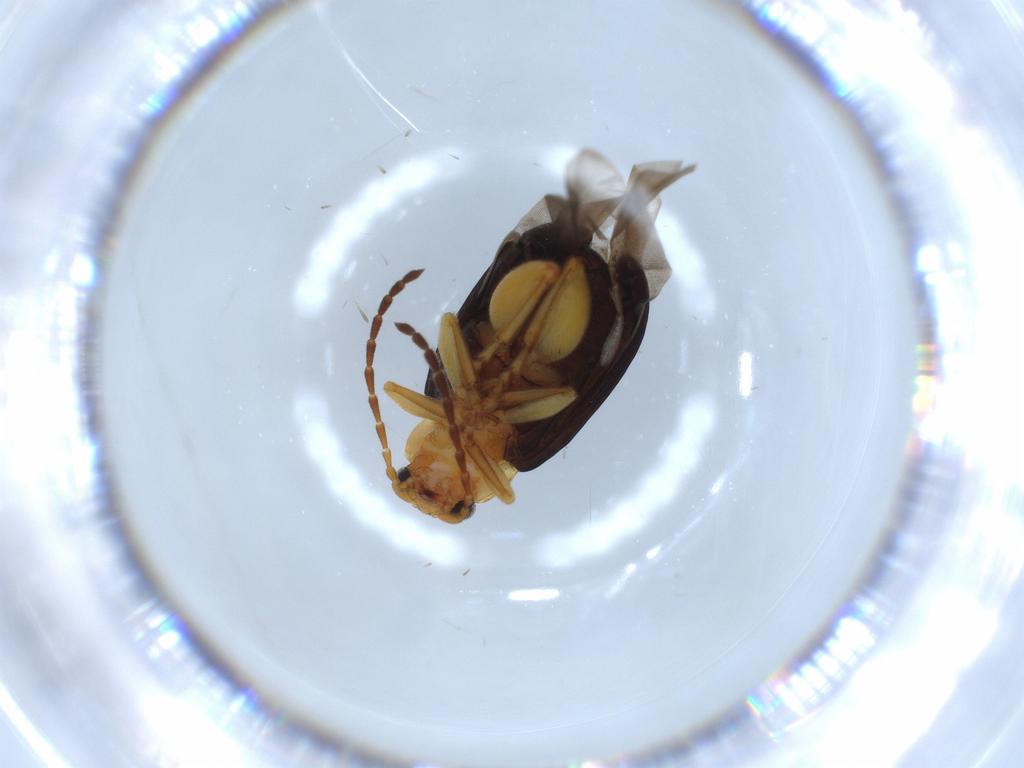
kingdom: Animalia
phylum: Arthropoda
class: Insecta
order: Coleoptera
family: Chrysomelidae
